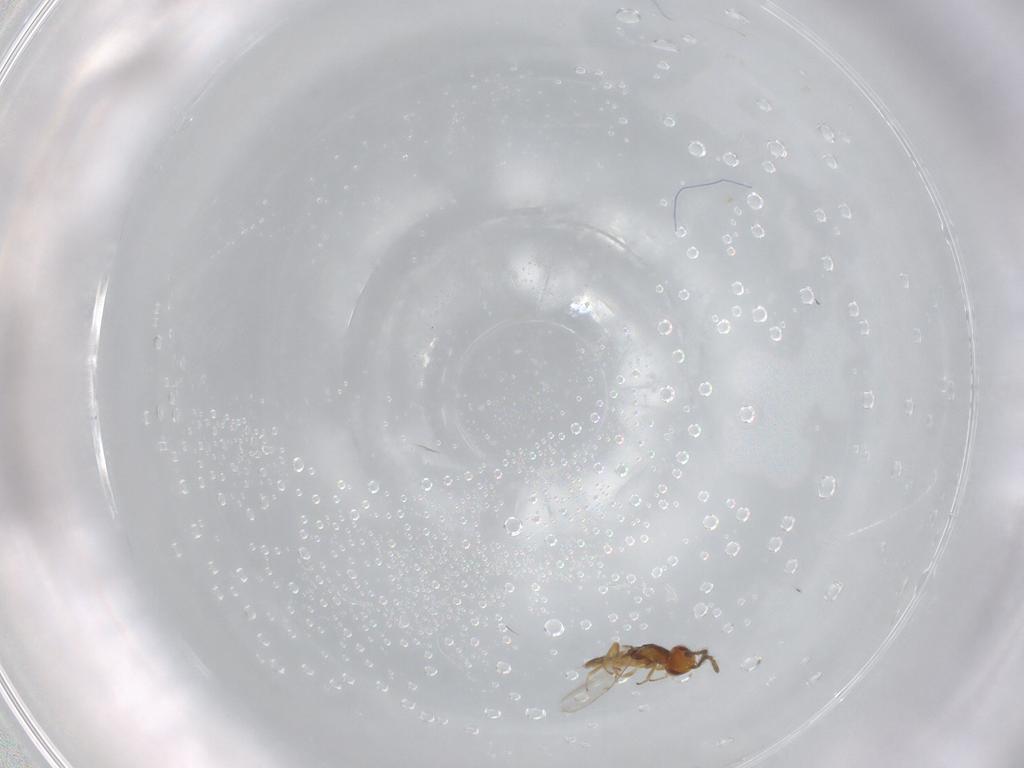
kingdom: Animalia
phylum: Arthropoda
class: Insecta
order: Hymenoptera
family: Encyrtidae
